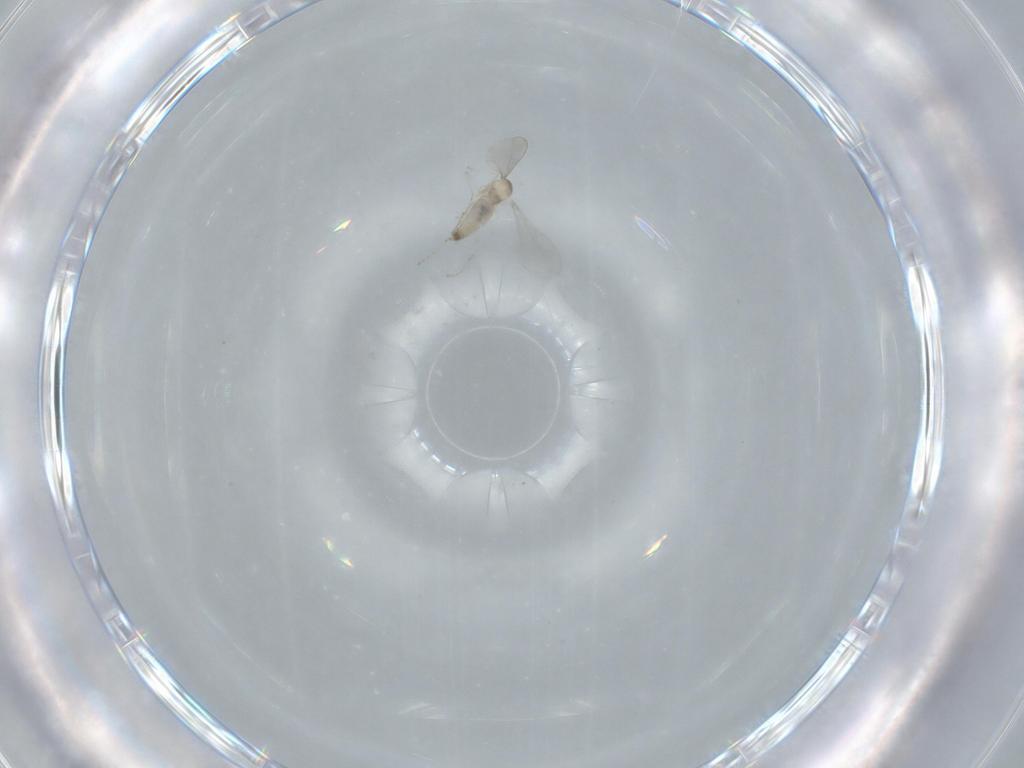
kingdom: Animalia
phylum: Arthropoda
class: Insecta
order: Diptera
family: Cecidomyiidae
